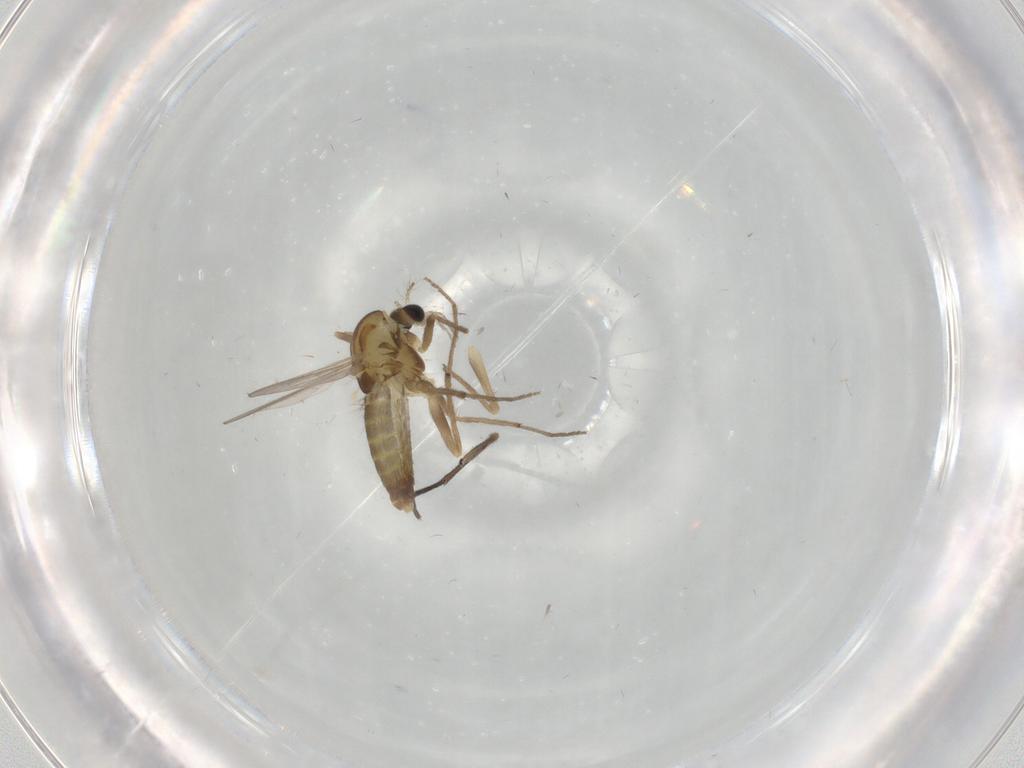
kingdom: Animalia
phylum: Arthropoda
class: Insecta
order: Diptera
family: Chironomidae
